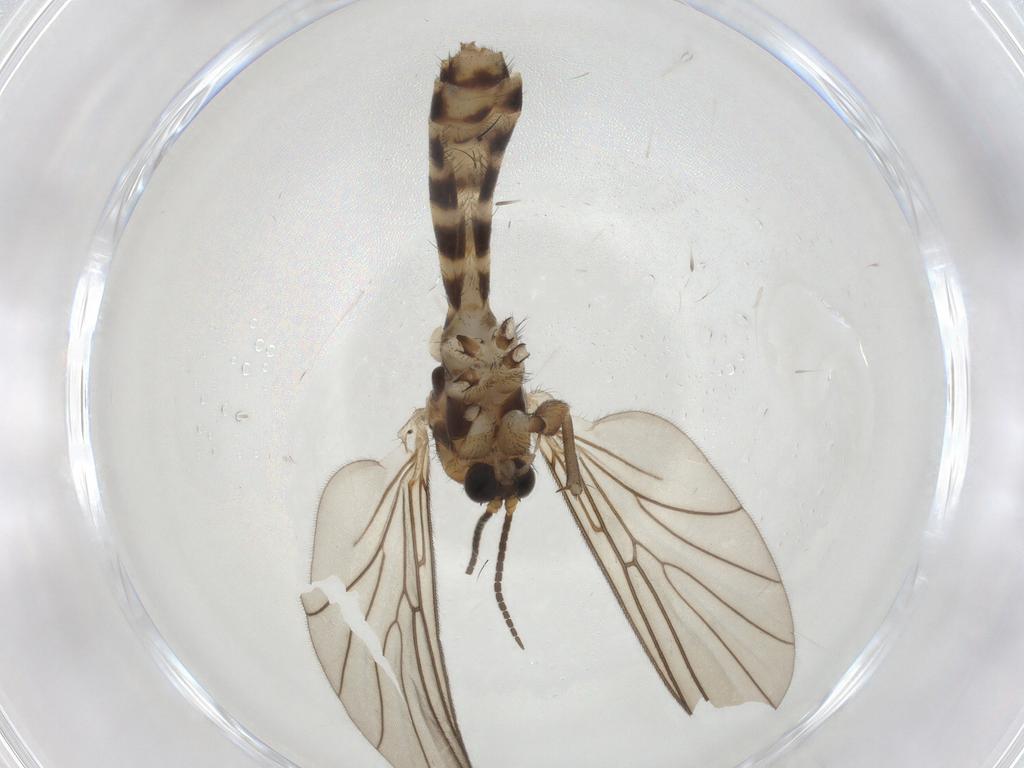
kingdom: Animalia
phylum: Arthropoda
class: Insecta
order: Diptera
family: Mycetophilidae
